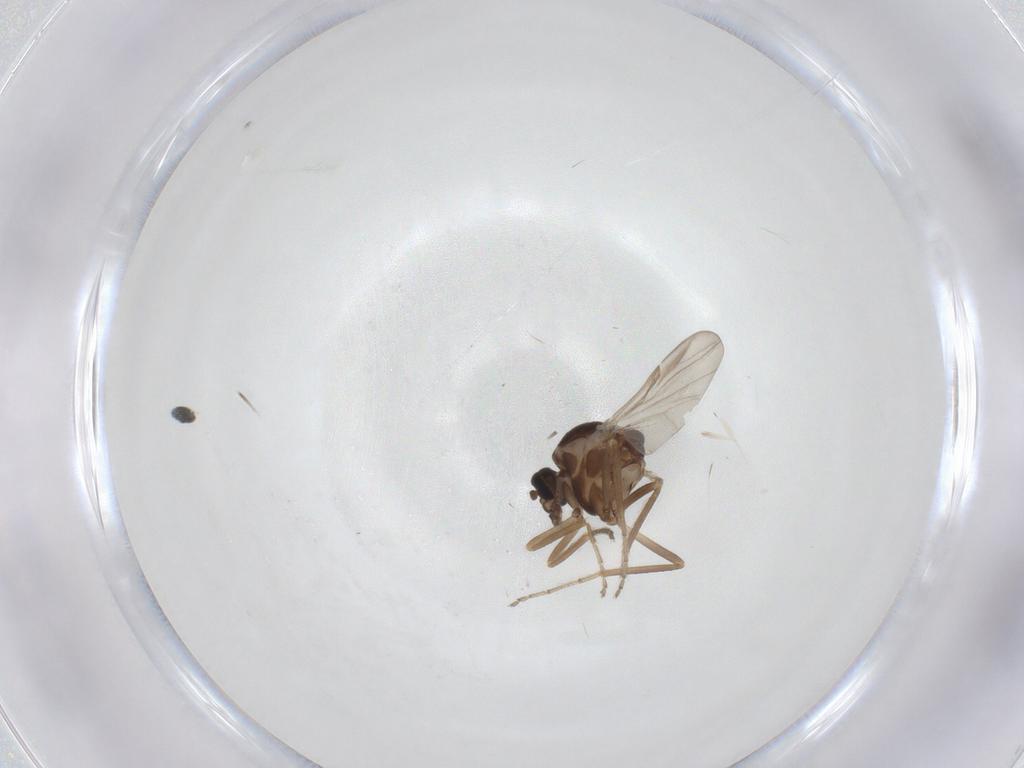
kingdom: Animalia
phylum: Arthropoda
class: Insecta
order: Diptera
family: Ceratopogonidae
